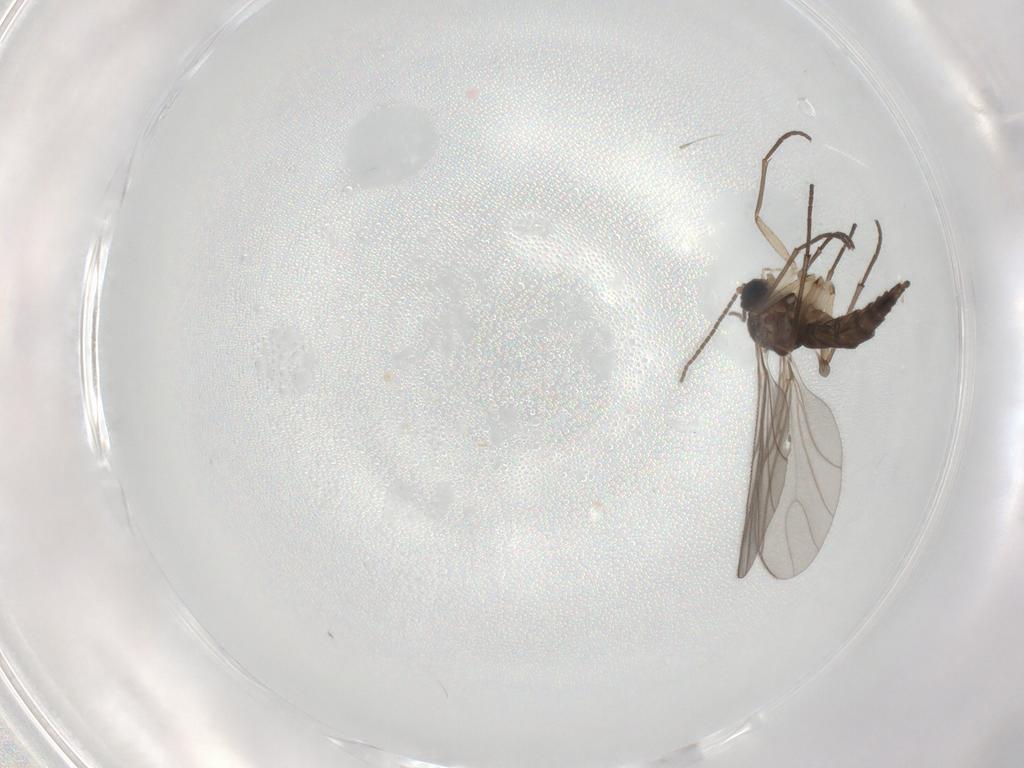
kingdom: Animalia
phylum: Arthropoda
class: Insecta
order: Diptera
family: Sciaridae
